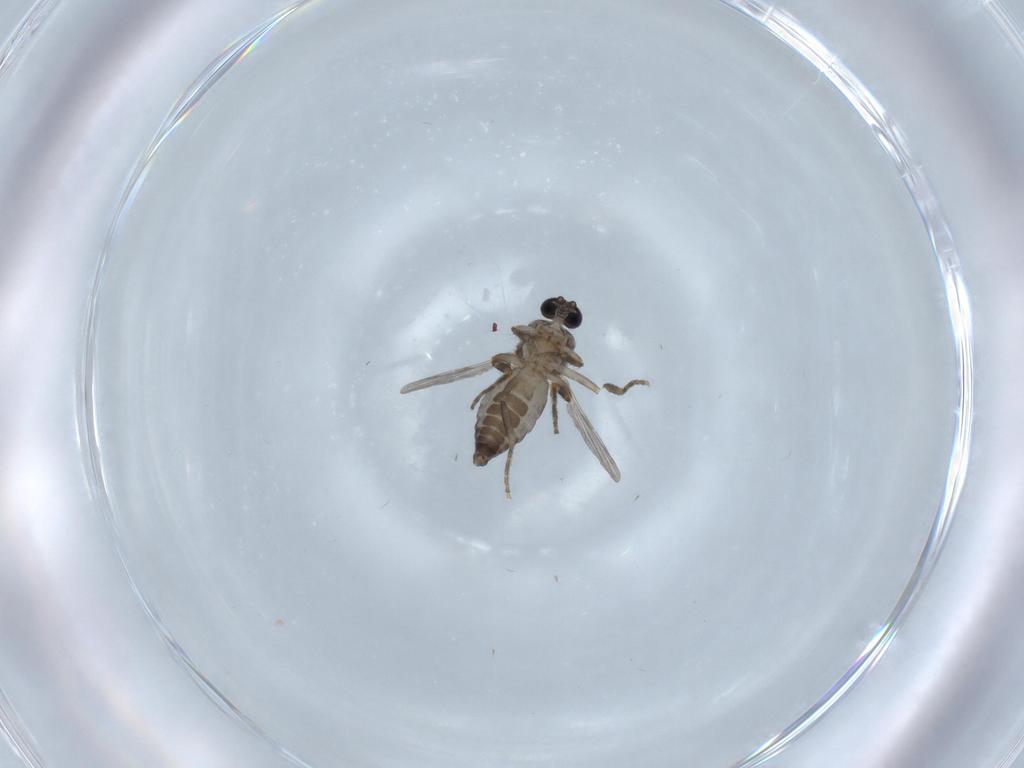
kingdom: Animalia
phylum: Arthropoda
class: Insecta
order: Diptera
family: Ceratopogonidae
